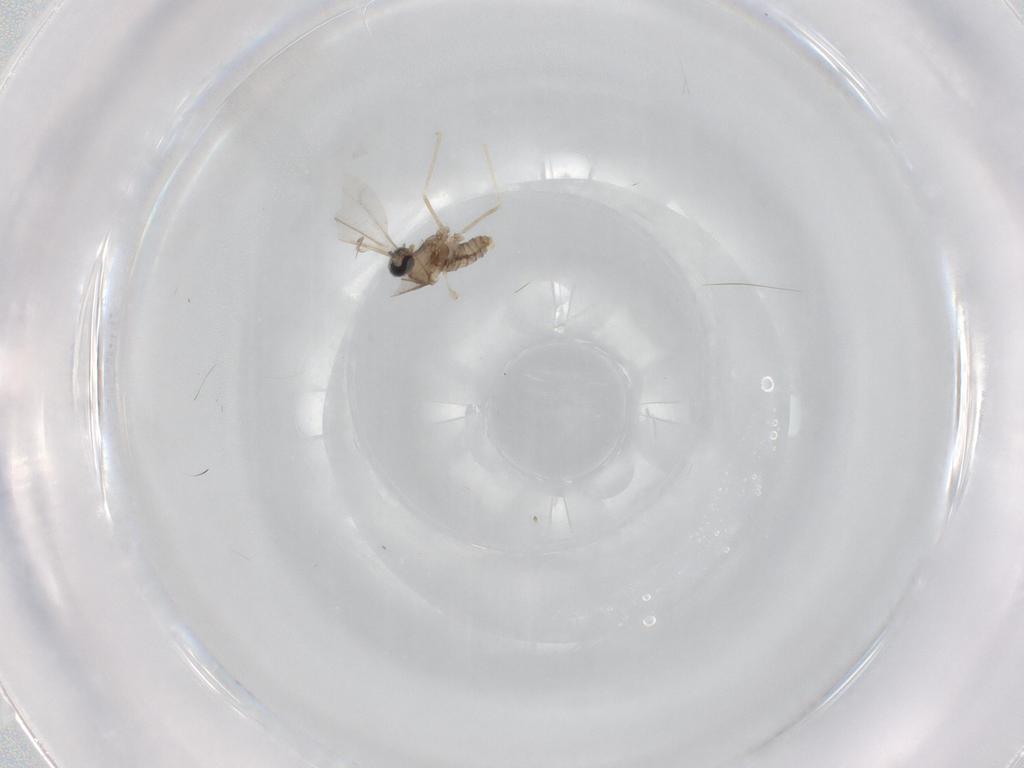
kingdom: Animalia
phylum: Arthropoda
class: Insecta
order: Diptera
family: Cecidomyiidae
